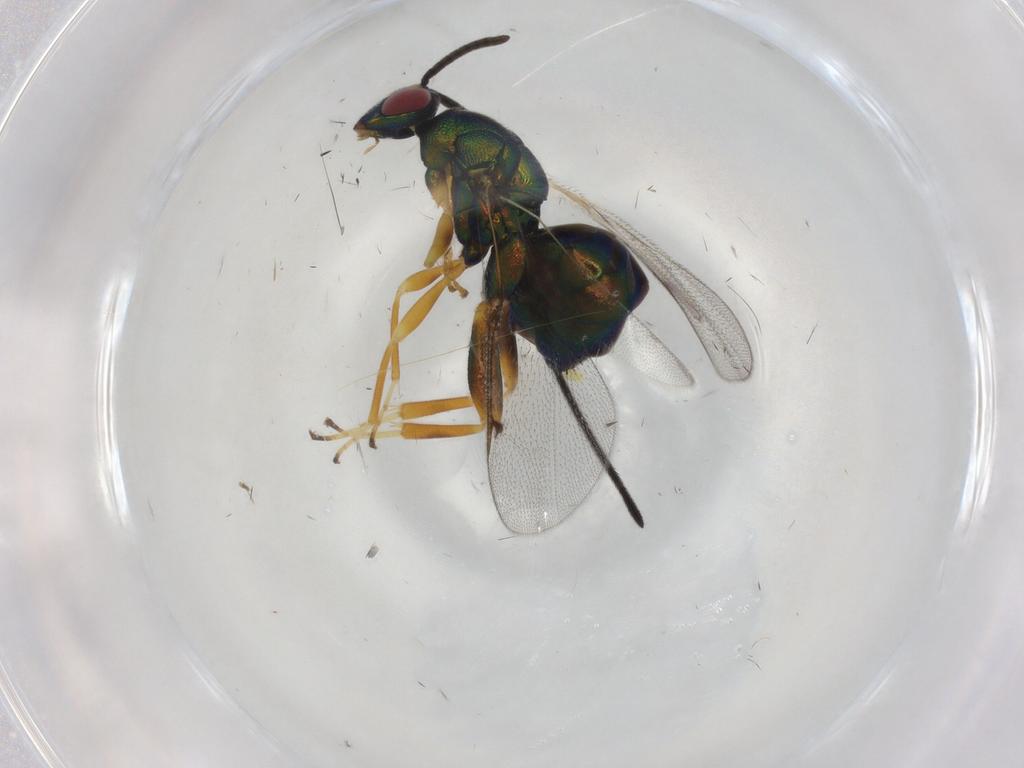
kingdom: Animalia
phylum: Arthropoda
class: Insecta
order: Hymenoptera
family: Torymidae
